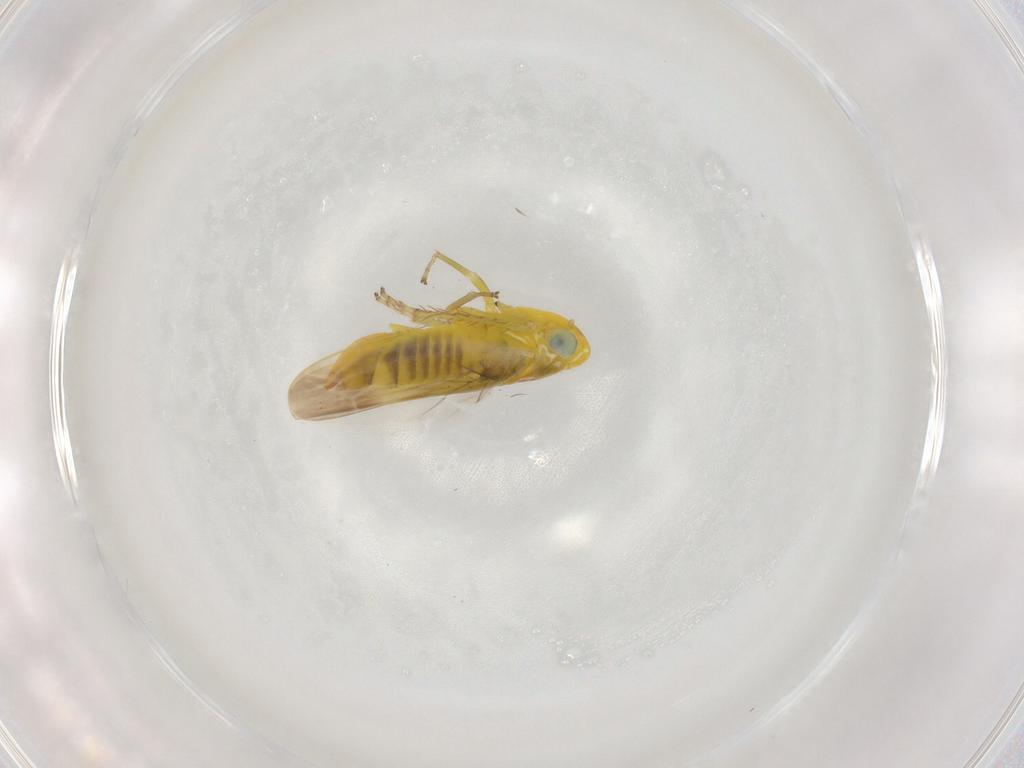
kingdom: Animalia
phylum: Arthropoda
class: Insecta
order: Hemiptera
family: Cicadellidae
